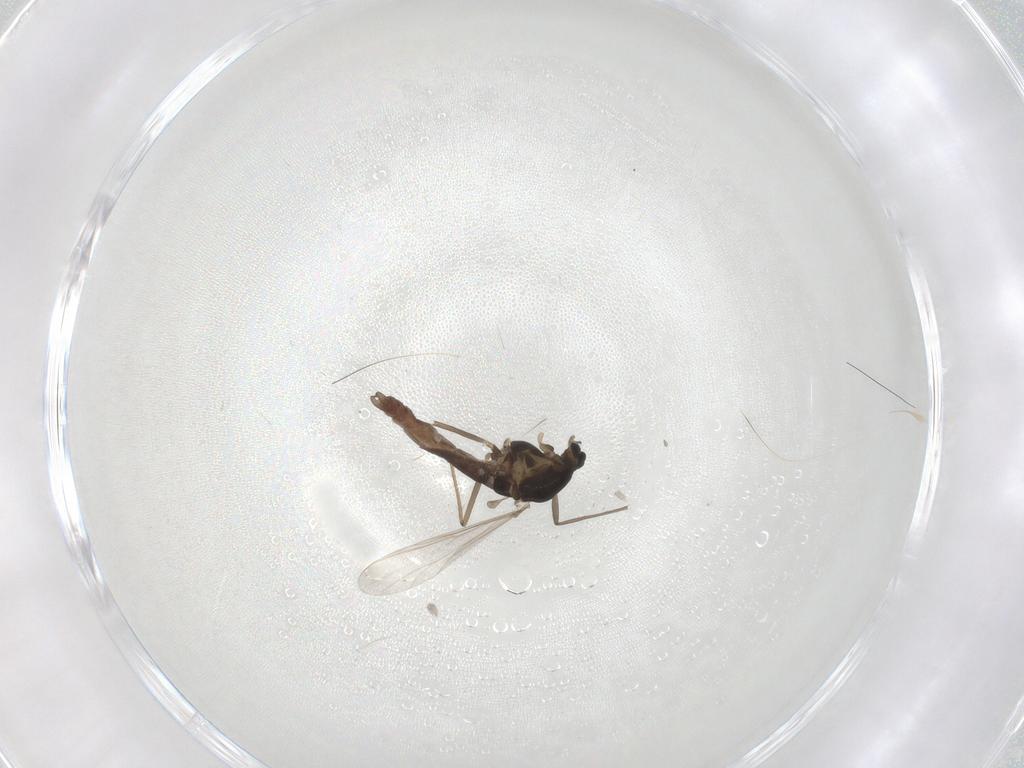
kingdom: Animalia
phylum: Arthropoda
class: Insecta
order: Diptera
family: Chironomidae
